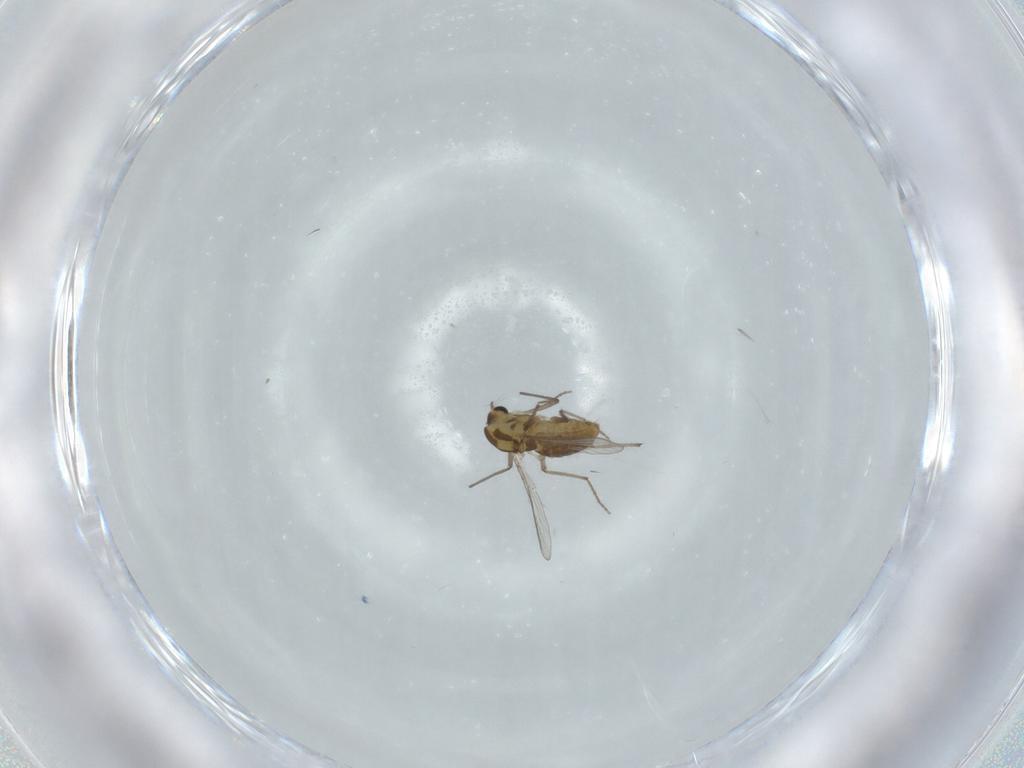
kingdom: Animalia
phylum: Arthropoda
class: Insecta
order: Diptera
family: Chironomidae
